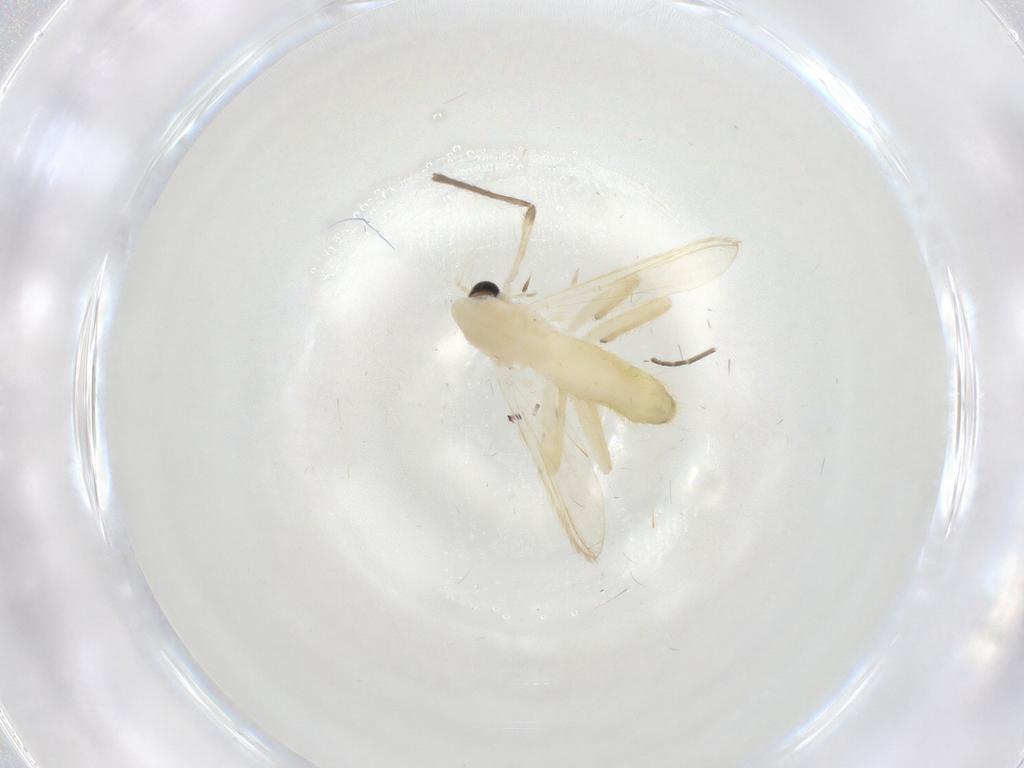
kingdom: Animalia
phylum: Arthropoda
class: Insecta
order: Diptera
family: Chironomidae
